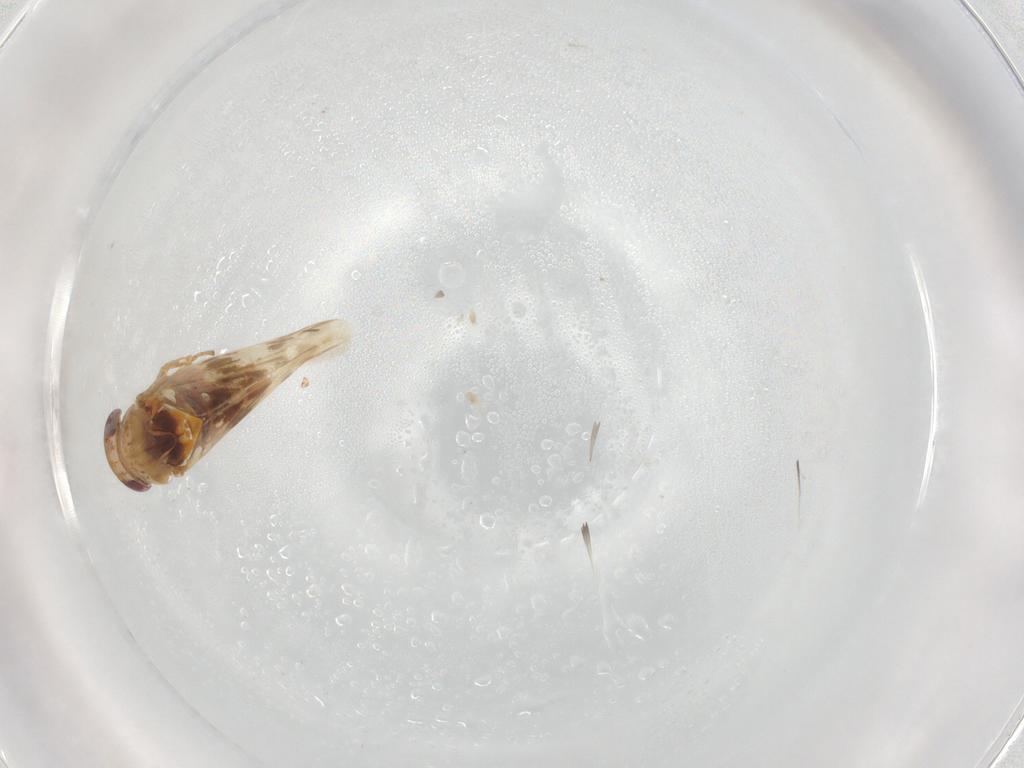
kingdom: Animalia
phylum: Arthropoda
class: Insecta
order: Hemiptera
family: Cicadellidae
